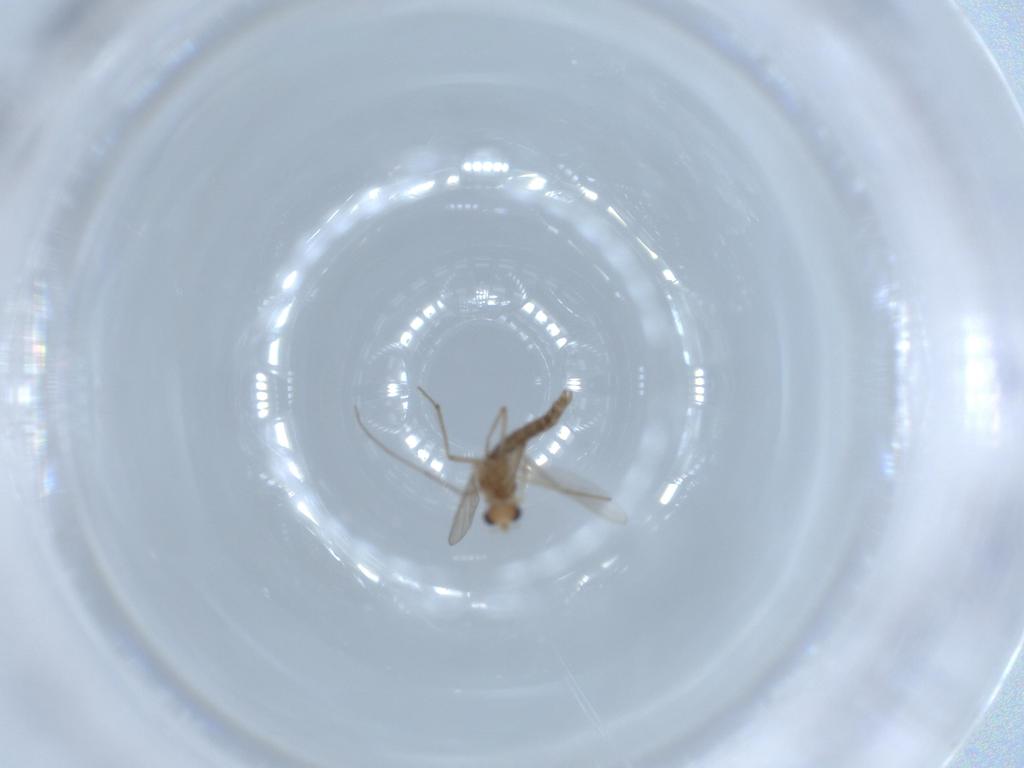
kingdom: Animalia
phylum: Arthropoda
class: Insecta
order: Diptera
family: Chironomidae
